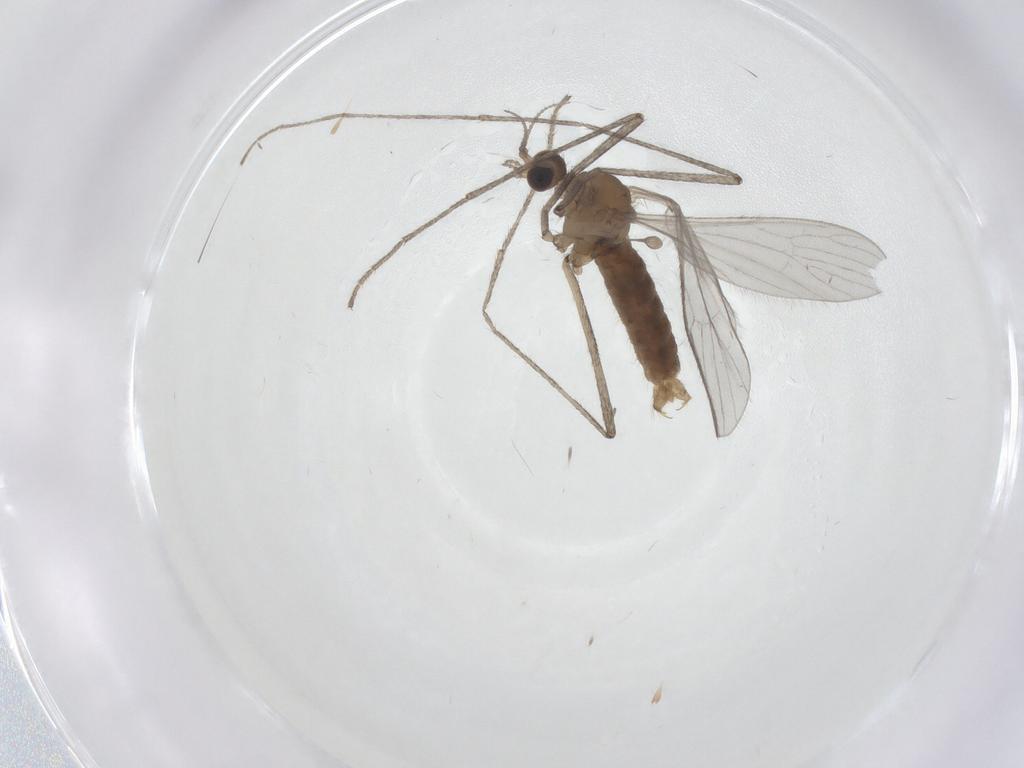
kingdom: Animalia
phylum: Arthropoda
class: Insecta
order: Diptera
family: Limoniidae
